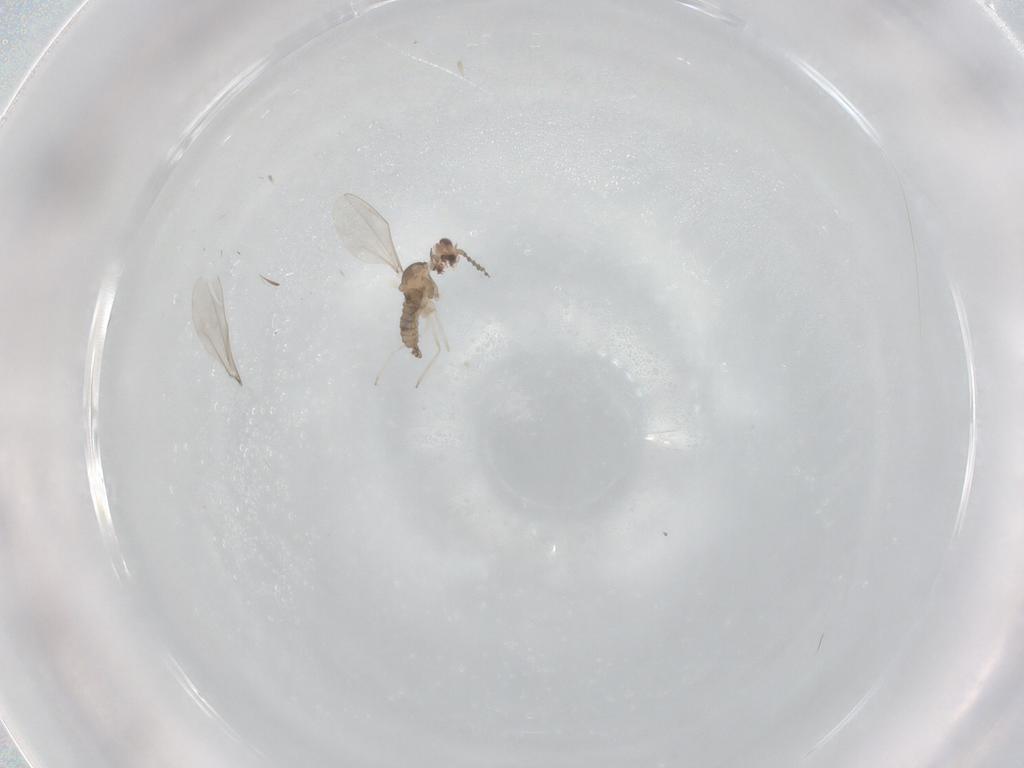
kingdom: Animalia
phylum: Arthropoda
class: Insecta
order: Diptera
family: Cecidomyiidae
